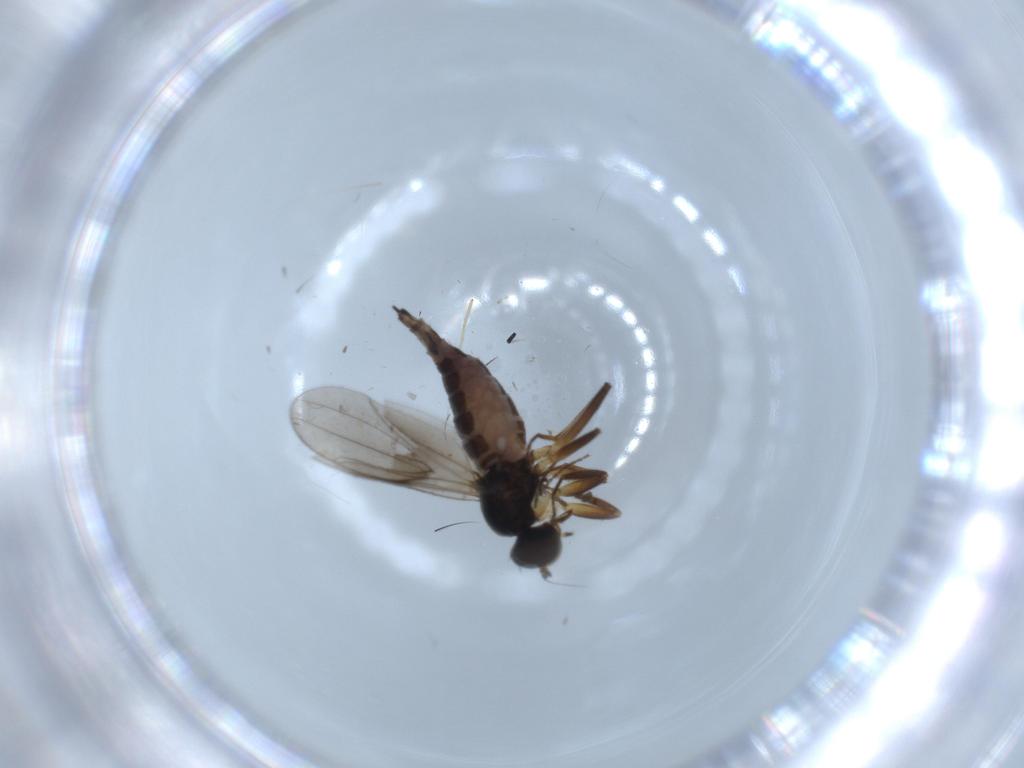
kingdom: Animalia
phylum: Arthropoda
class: Insecta
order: Diptera
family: Hybotidae
